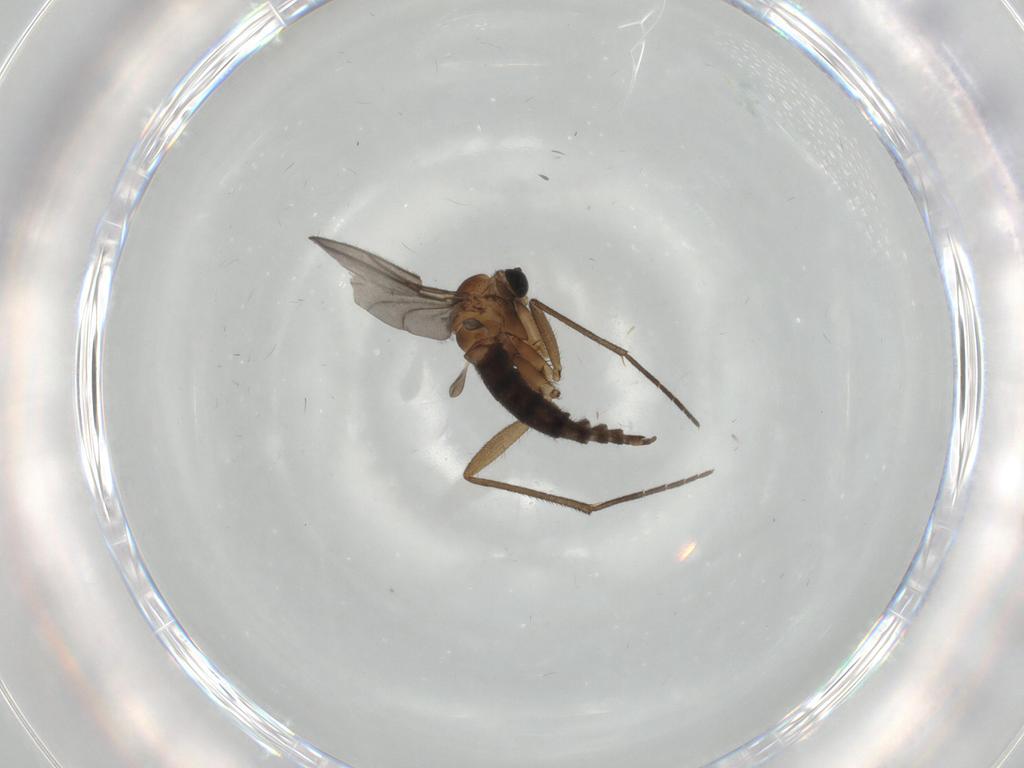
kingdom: Animalia
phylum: Arthropoda
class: Insecta
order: Diptera
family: Sciaridae
